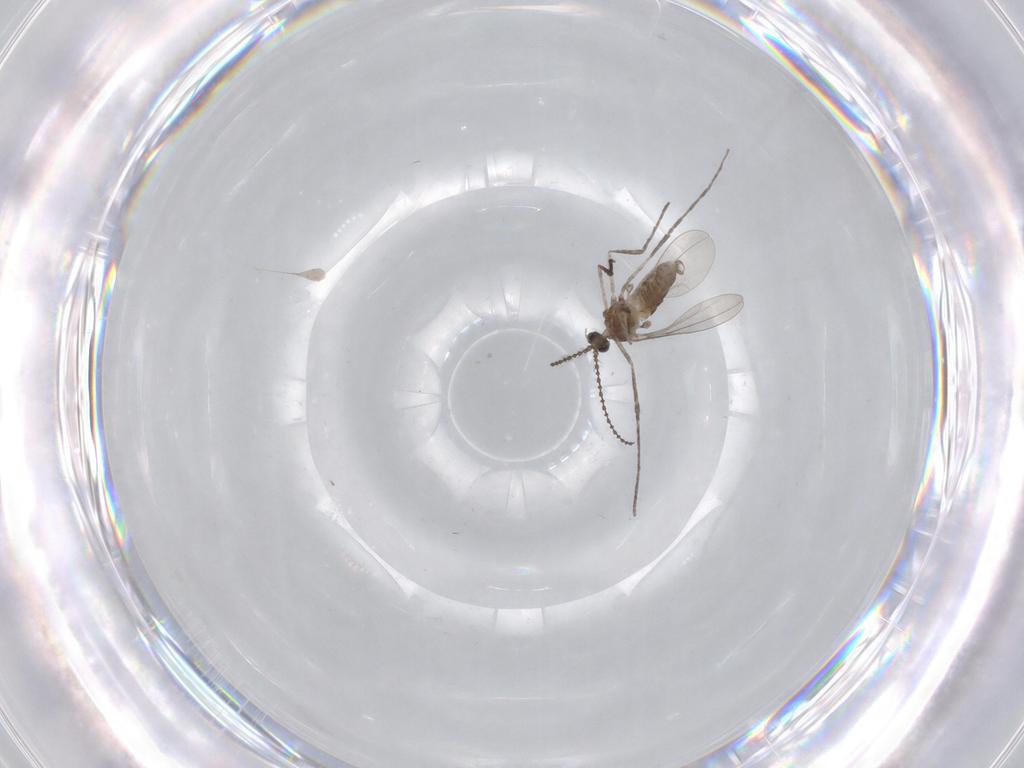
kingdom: Animalia
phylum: Arthropoda
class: Insecta
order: Diptera
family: Chironomidae
